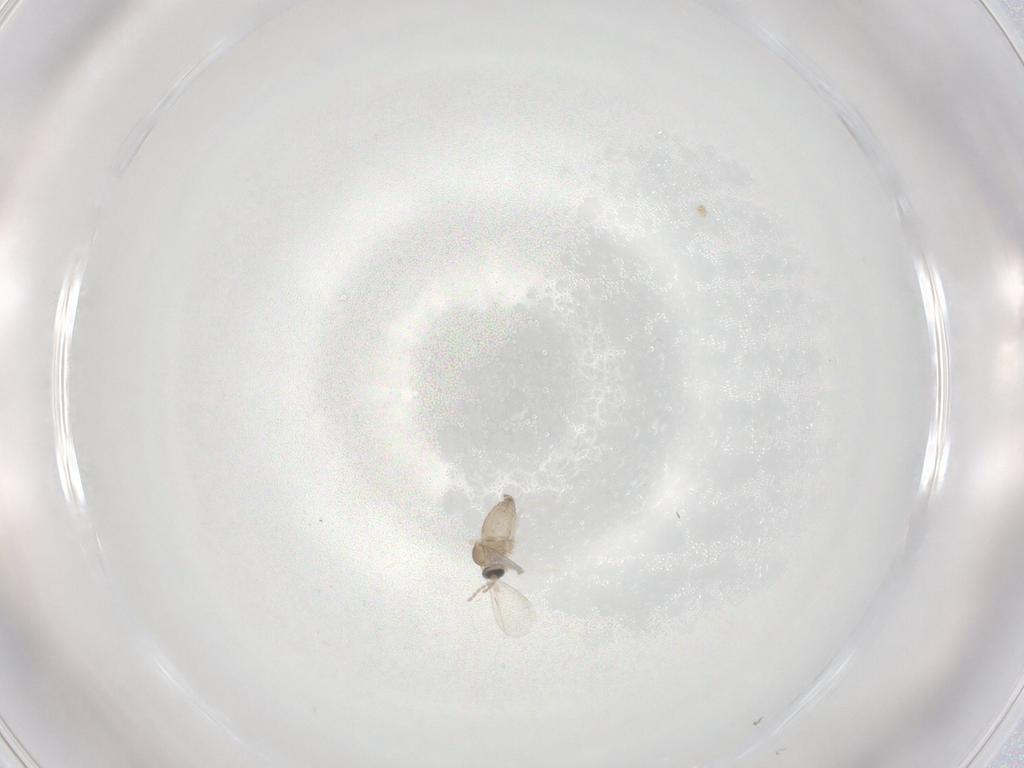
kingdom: Animalia
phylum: Arthropoda
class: Insecta
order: Diptera
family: Cecidomyiidae
